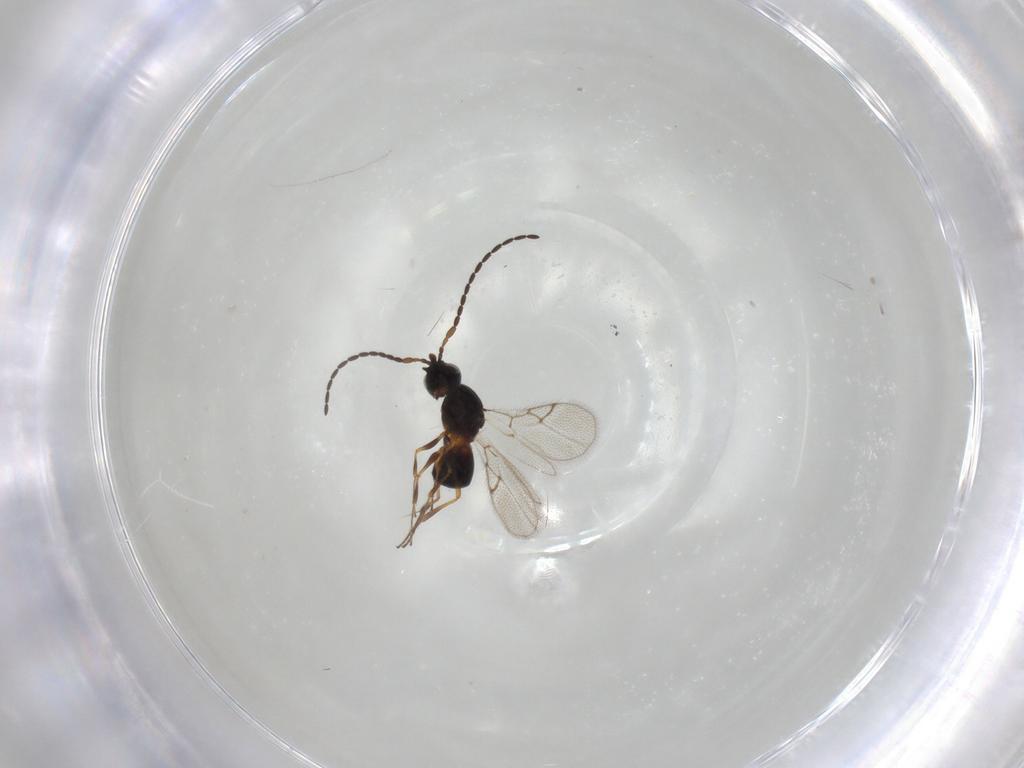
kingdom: Animalia
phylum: Arthropoda
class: Insecta
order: Hymenoptera
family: Figitidae
